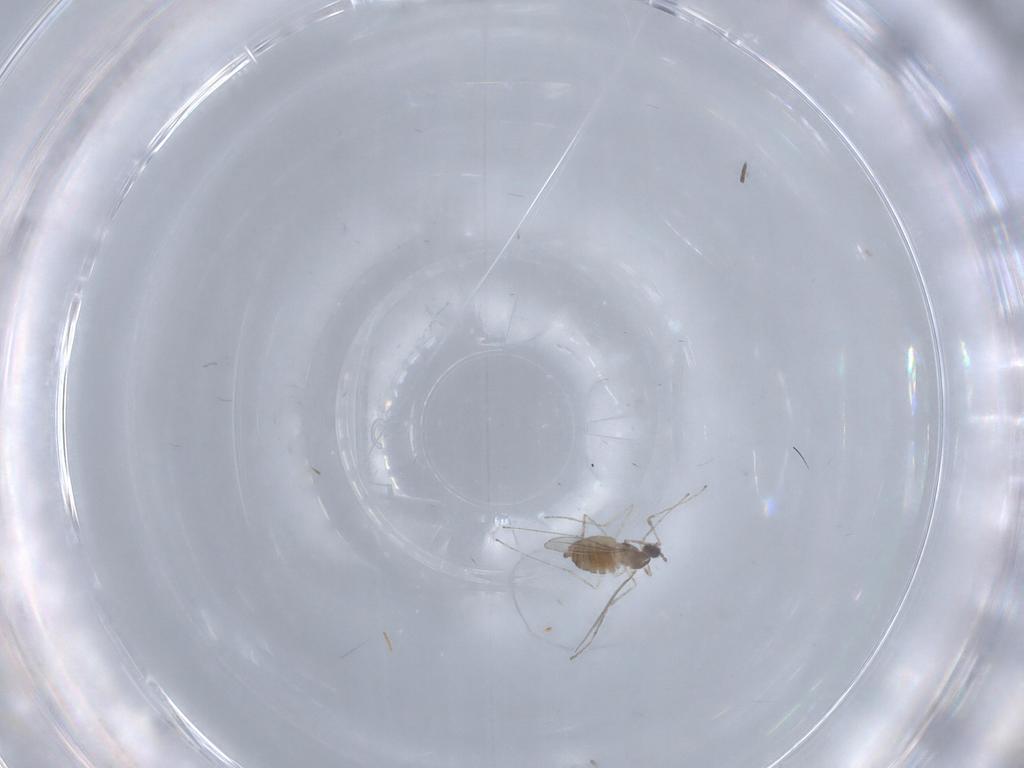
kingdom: Animalia
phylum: Arthropoda
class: Insecta
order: Diptera
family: Chironomidae
